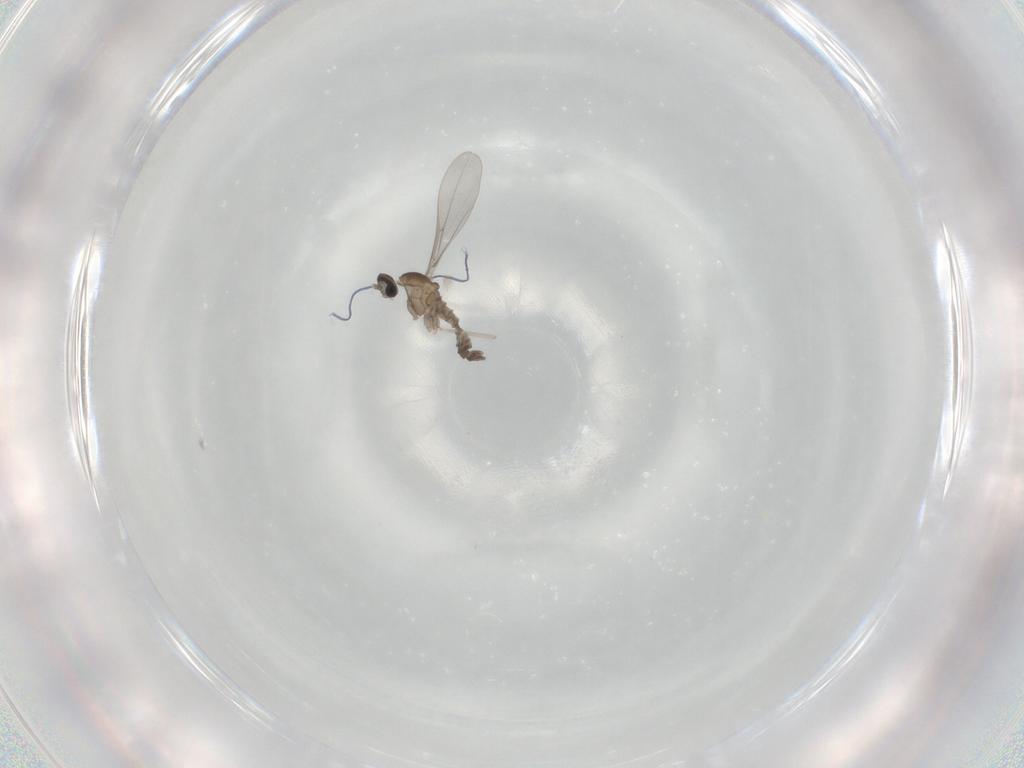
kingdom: Animalia
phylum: Arthropoda
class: Insecta
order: Diptera
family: Cecidomyiidae
